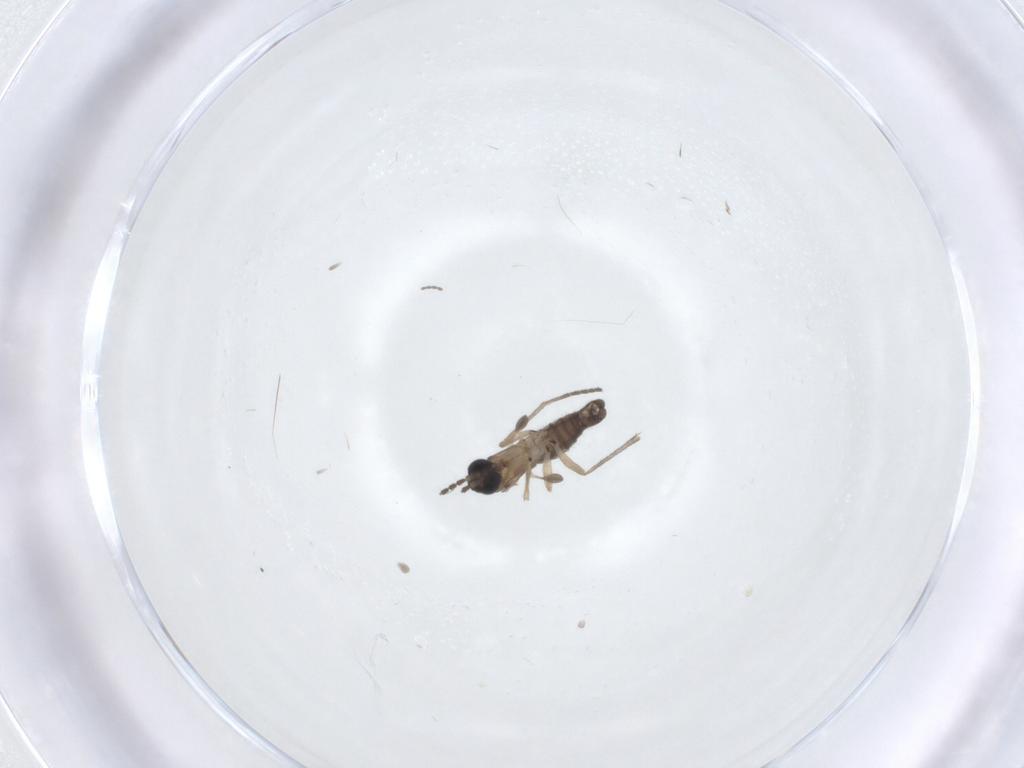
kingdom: Animalia
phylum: Arthropoda
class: Insecta
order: Diptera
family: Sciaridae
